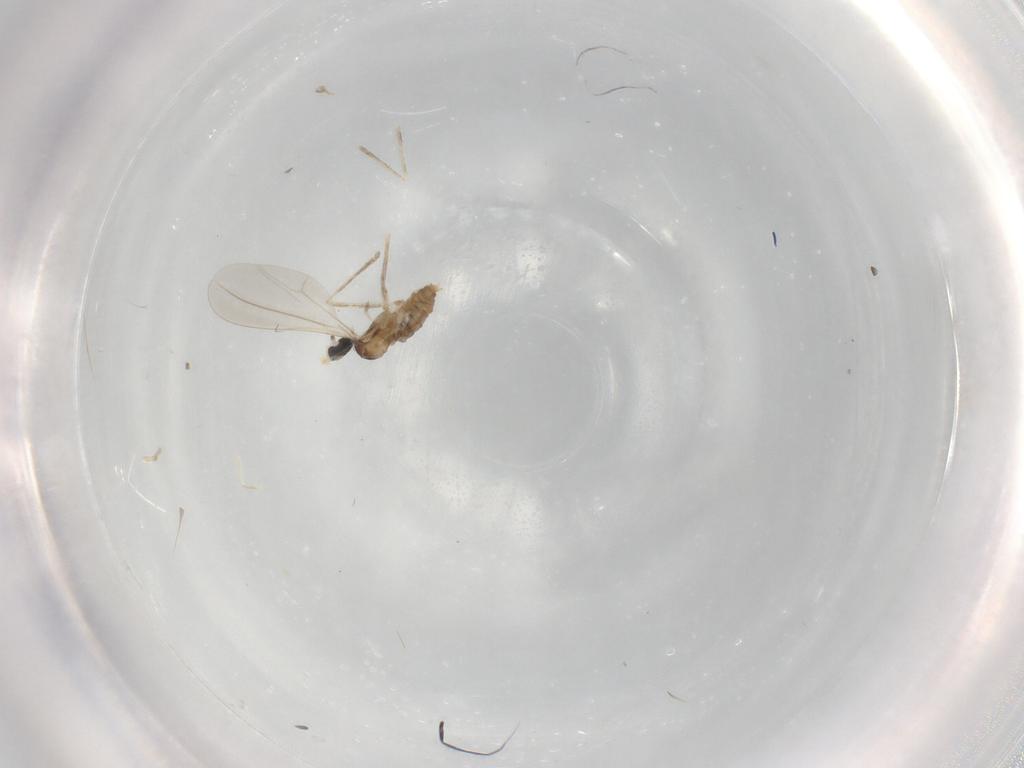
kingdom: Animalia
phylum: Arthropoda
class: Insecta
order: Diptera
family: Cecidomyiidae
